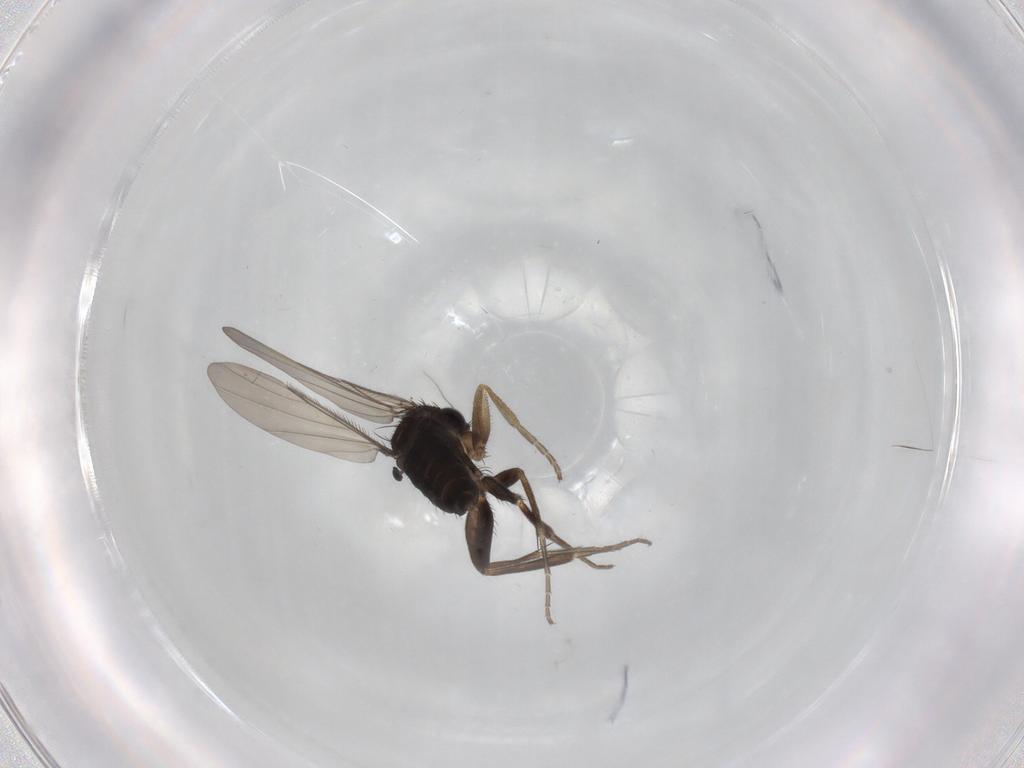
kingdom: Animalia
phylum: Arthropoda
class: Insecta
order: Diptera
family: Phoridae
